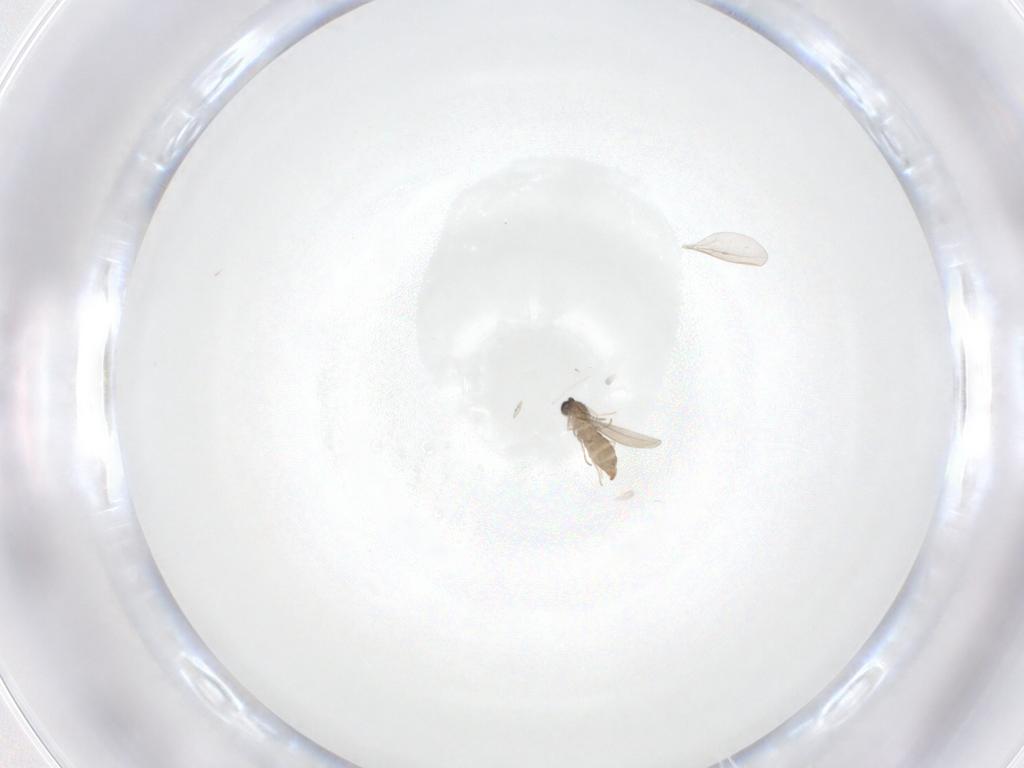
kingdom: Animalia
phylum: Arthropoda
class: Insecta
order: Diptera
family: Cecidomyiidae
